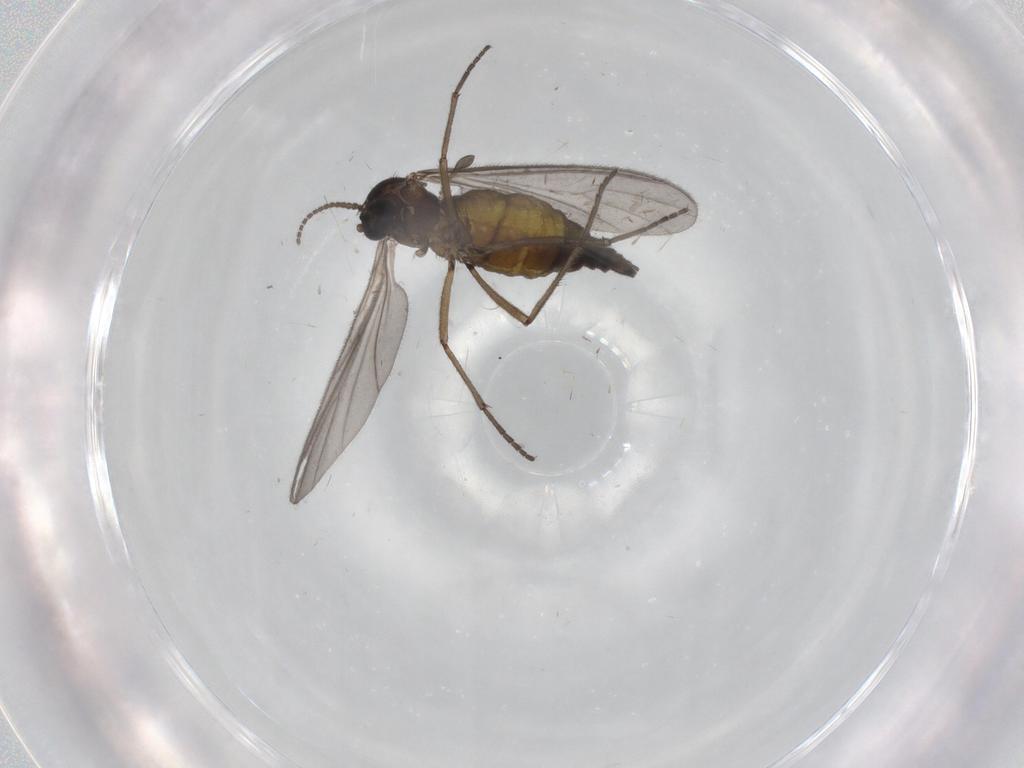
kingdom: Animalia
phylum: Arthropoda
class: Insecta
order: Diptera
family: Sciaridae
